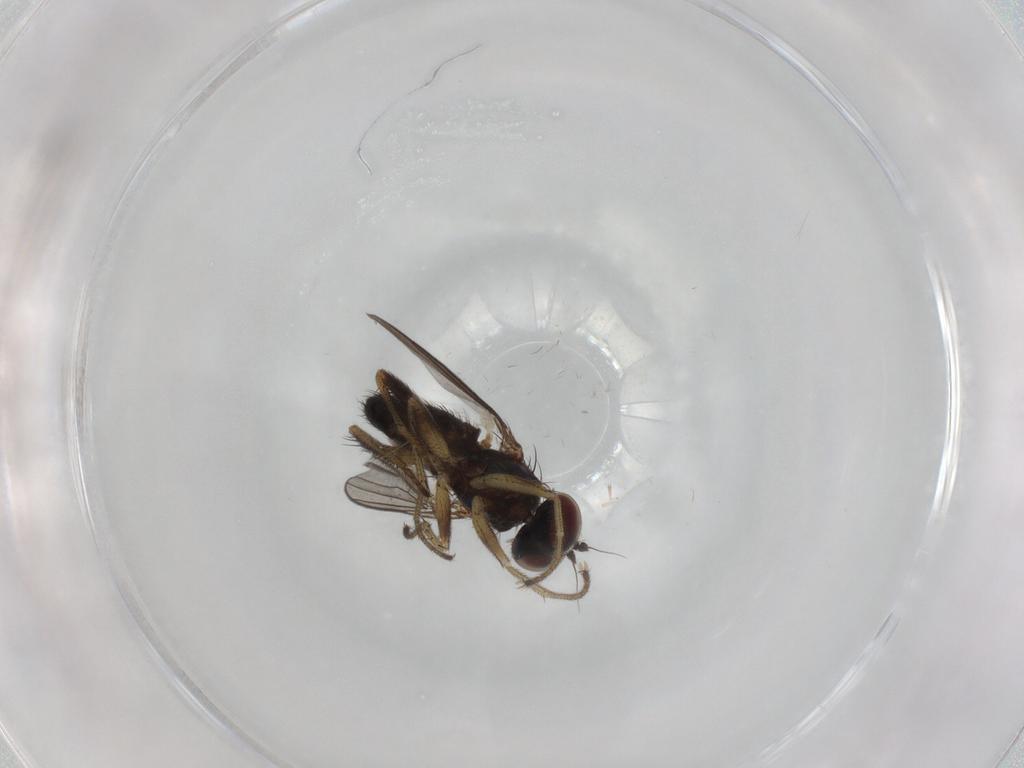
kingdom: Animalia
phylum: Arthropoda
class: Insecta
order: Diptera
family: Dolichopodidae
